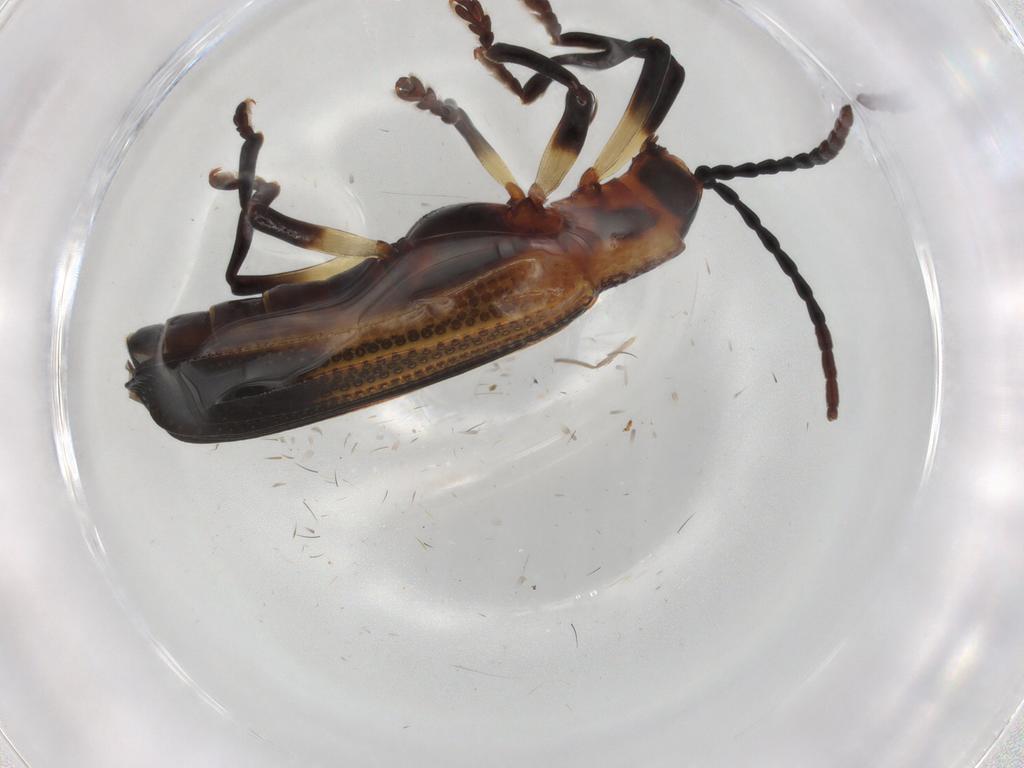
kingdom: Animalia
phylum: Arthropoda
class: Insecta
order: Coleoptera
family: Chrysomelidae
